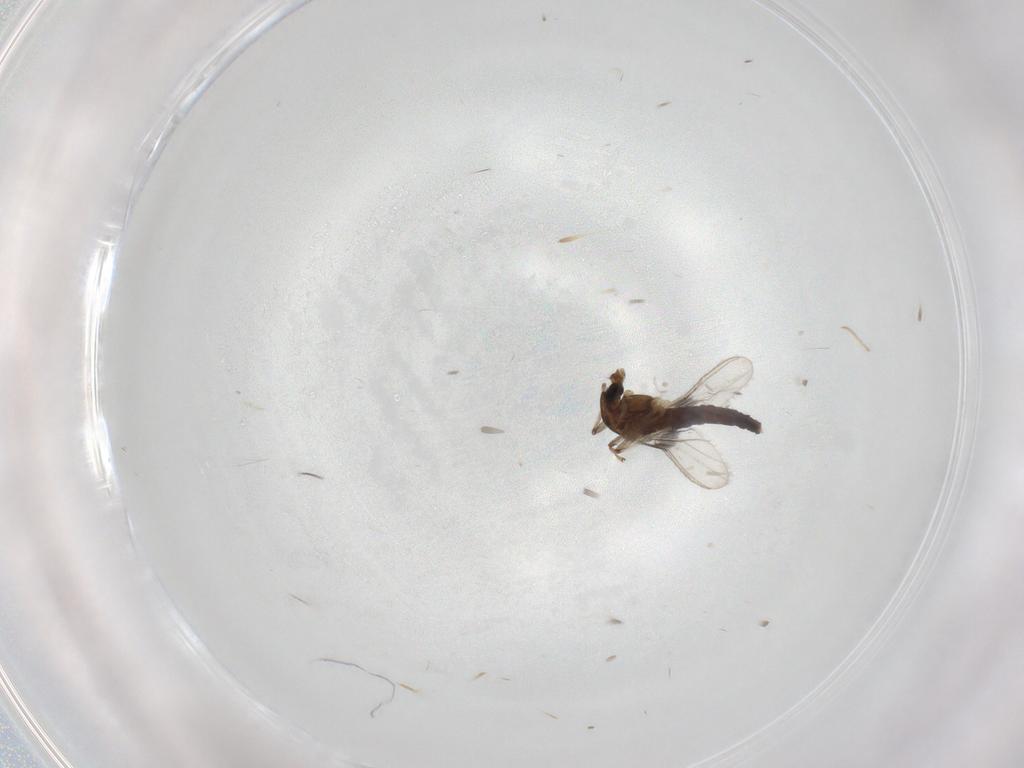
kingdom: Animalia
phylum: Arthropoda
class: Insecta
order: Diptera
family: Chironomidae
